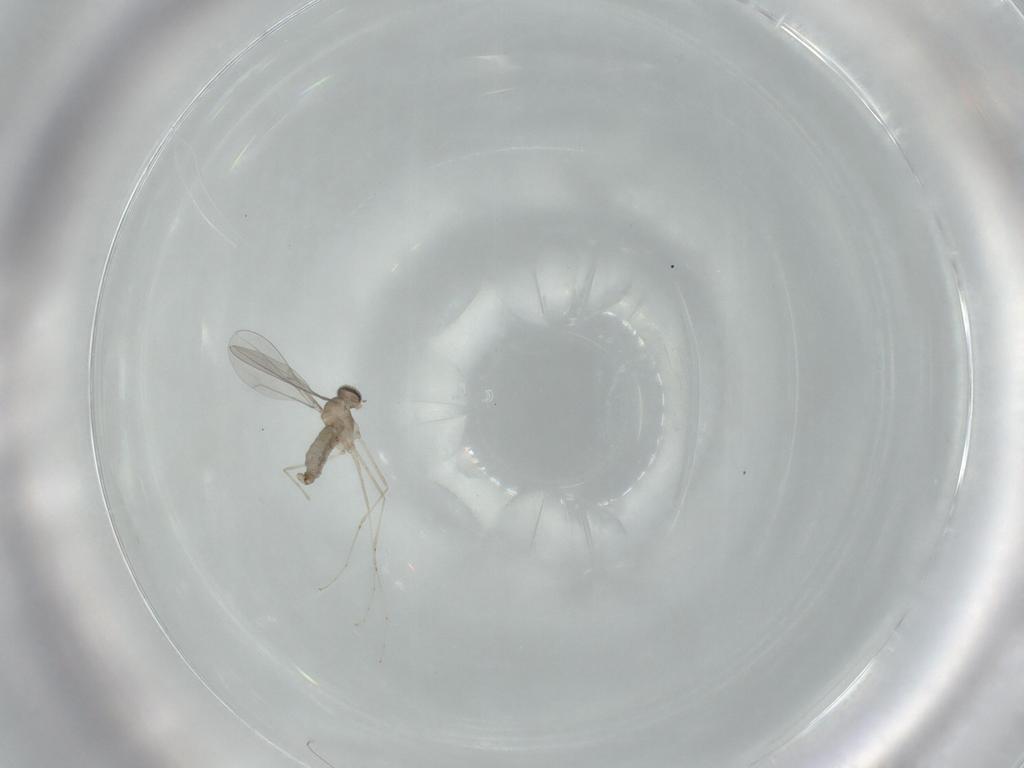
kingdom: Animalia
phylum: Arthropoda
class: Insecta
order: Diptera
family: Cecidomyiidae
